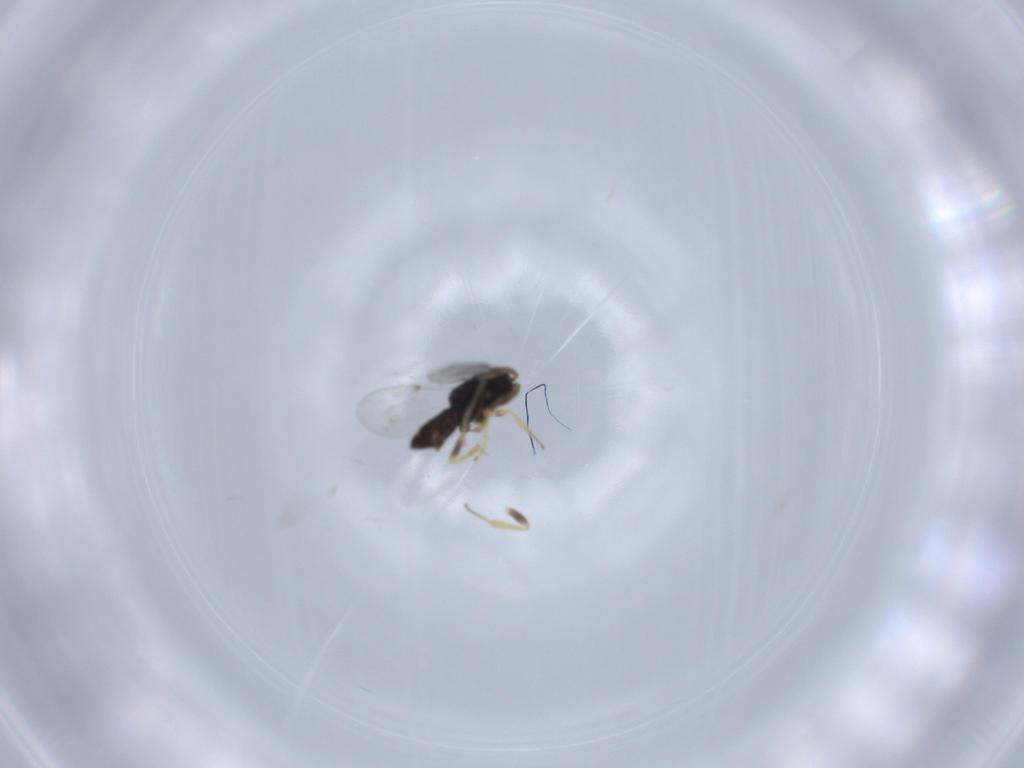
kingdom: Animalia
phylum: Arthropoda
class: Insecta
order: Hymenoptera
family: Encyrtidae
